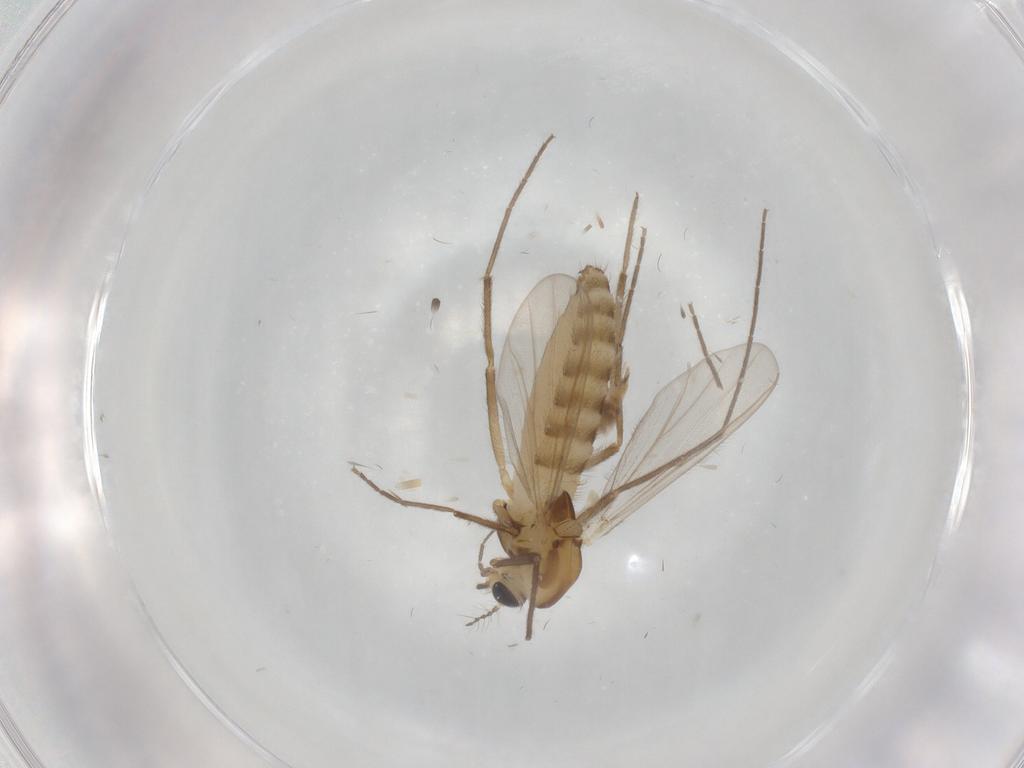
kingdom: Animalia
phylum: Arthropoda
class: Insecta
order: Diptera
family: Chironomidae
